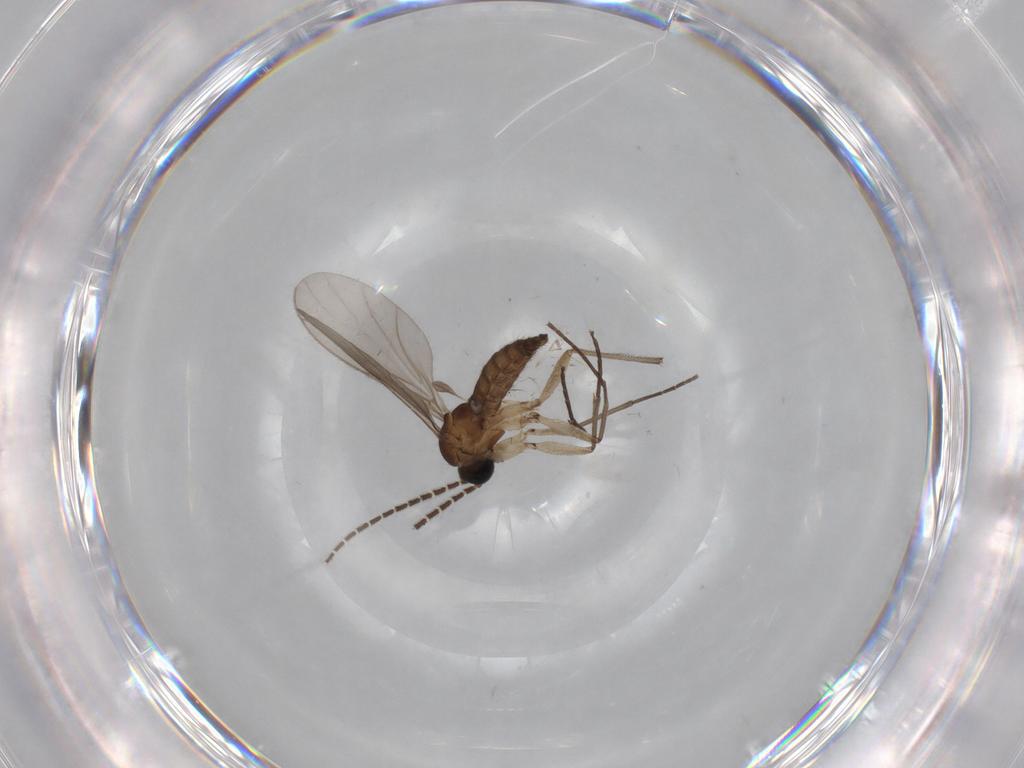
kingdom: Animalia
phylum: Arthropoda
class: Insecta
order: Diptera
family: Sciaridae
